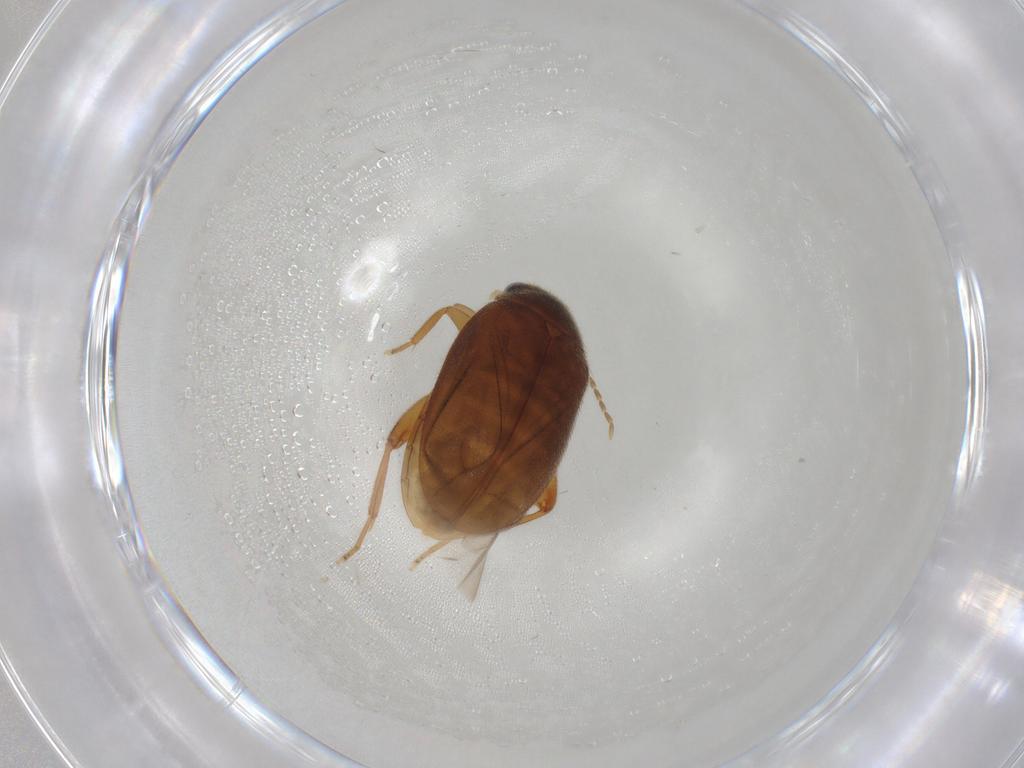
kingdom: Animalia
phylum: Arthropoda
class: Insecta
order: Coleoptera
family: Scirtidae
